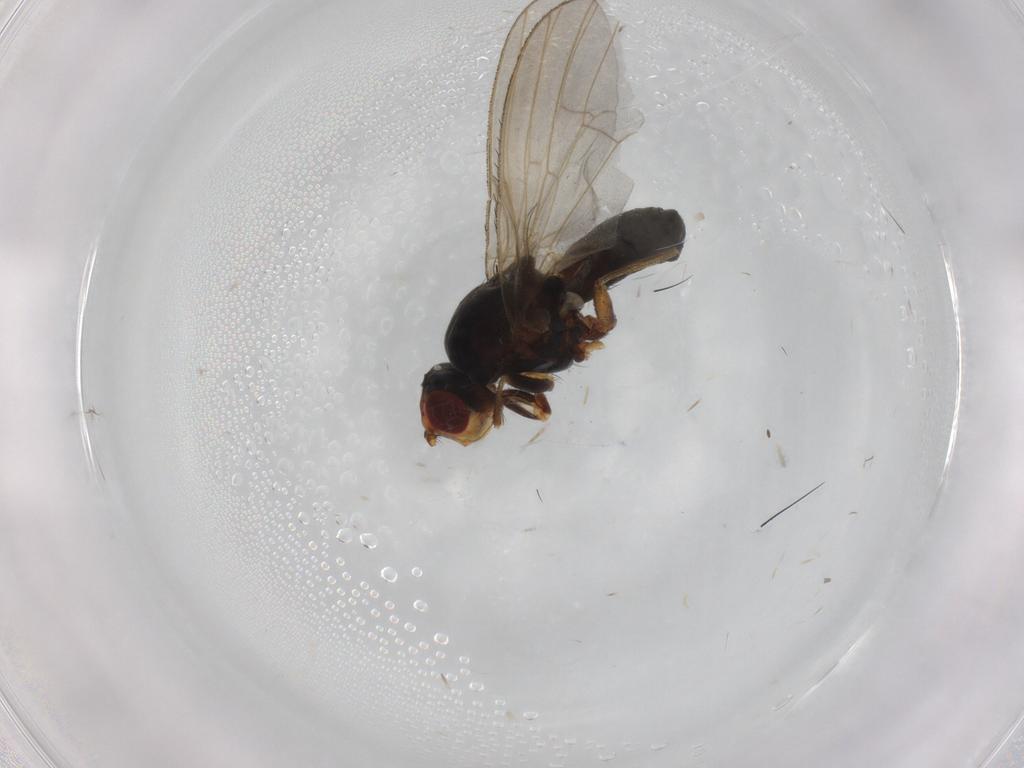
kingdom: Animalia
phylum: Arthropoda
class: Insecta
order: Diptera
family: Heleomyzidae
